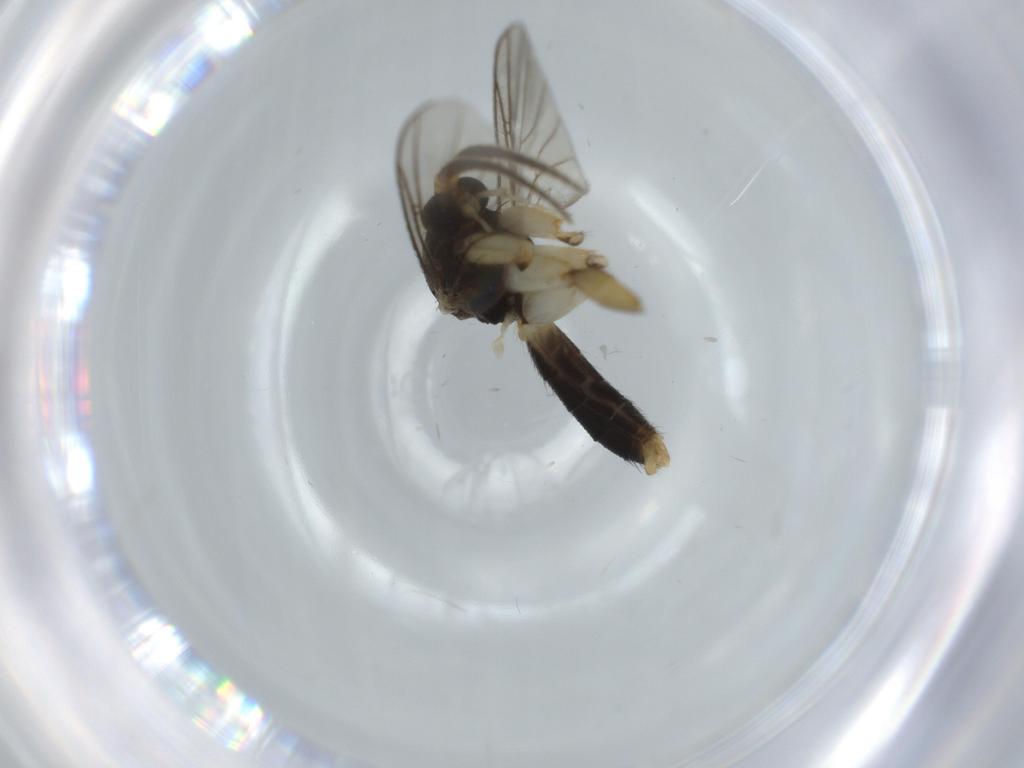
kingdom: Animalia
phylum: Arthropoda
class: Insecta
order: Diptera
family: Cecidomyiidae
